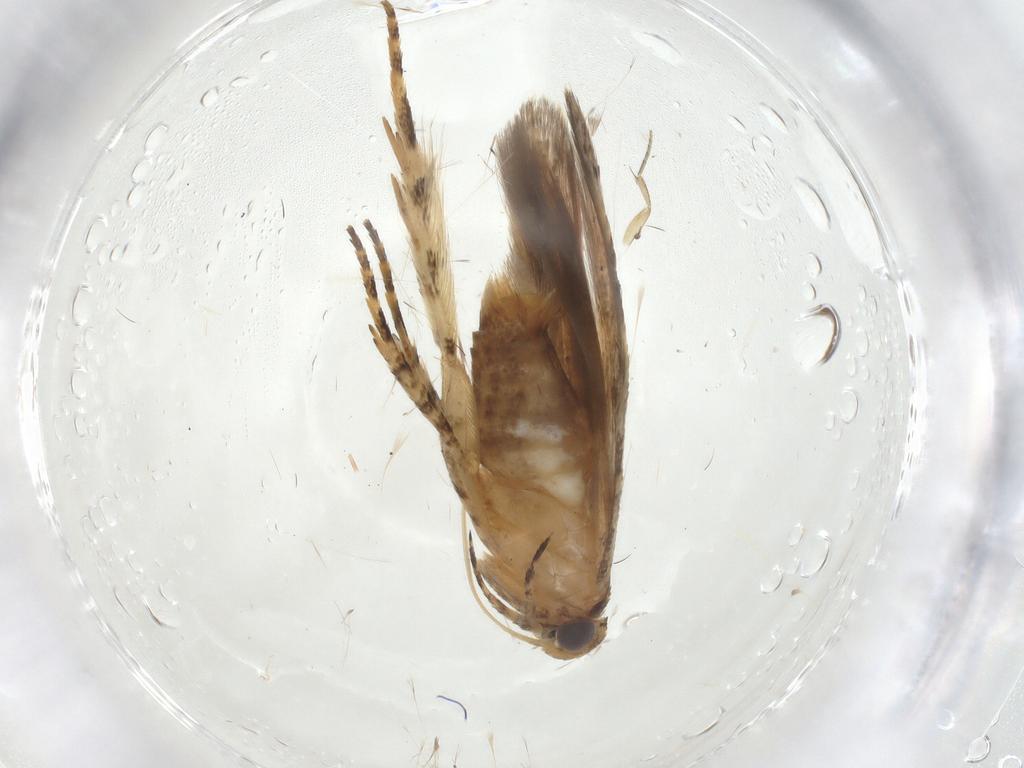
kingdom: Animalia
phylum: Arthropoda
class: Insecta
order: Lepidoptera
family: Gelechiidae
